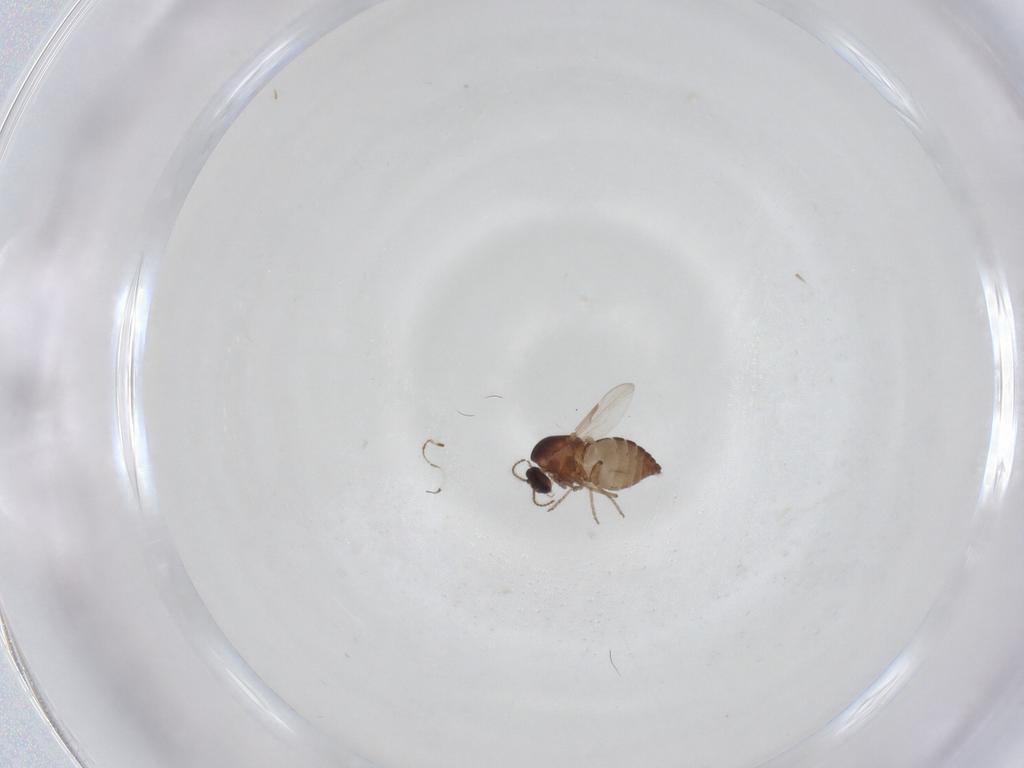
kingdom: Animalia
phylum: Arthropoda
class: Insecta
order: Diptera
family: Ceratopogonidae
